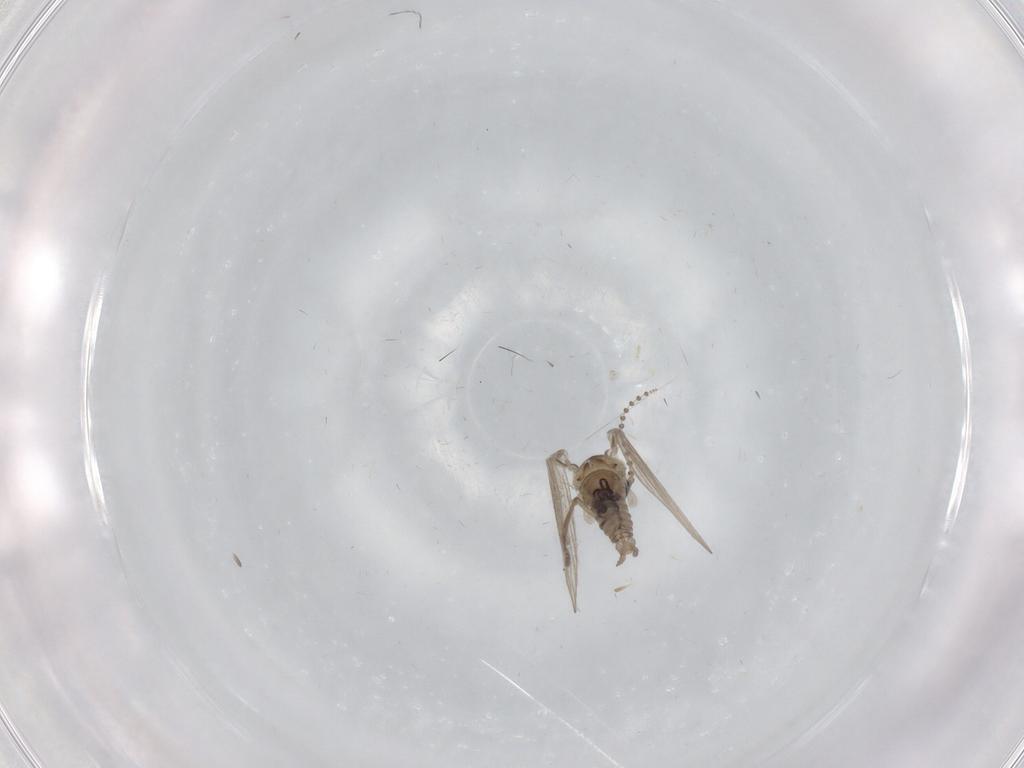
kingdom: Animalia
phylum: Arthropoda
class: Insecta
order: Diptera
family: Psychodidae
